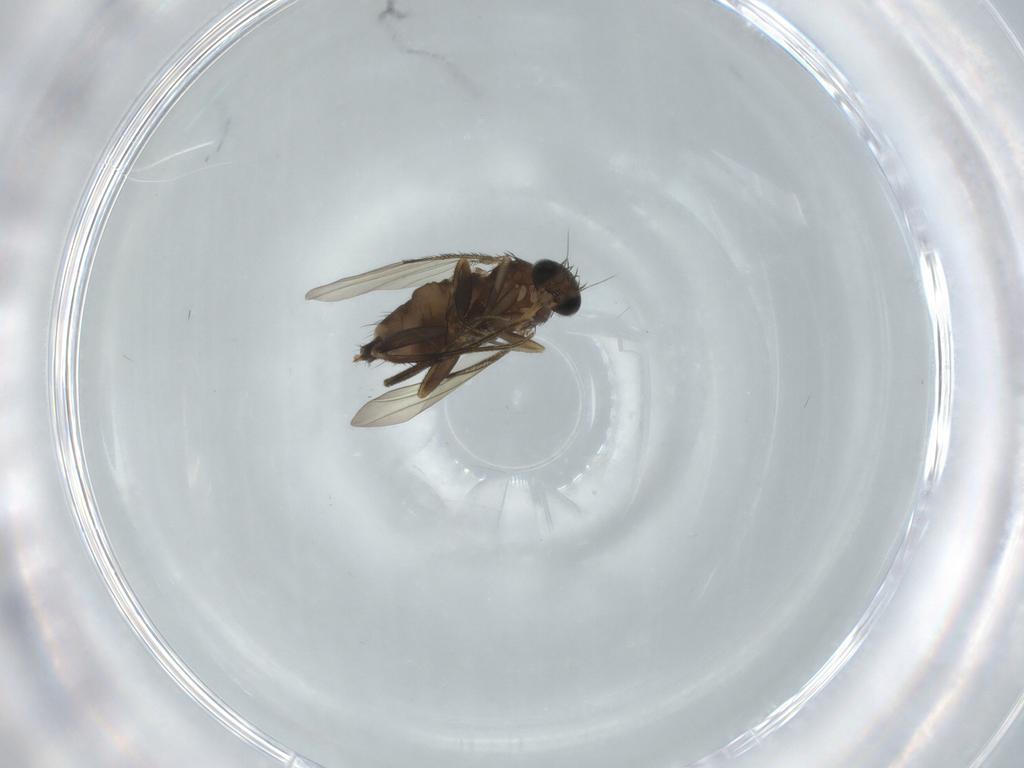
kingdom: Animalia
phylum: Arthropoda
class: Insecta
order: Diptera
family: Phoridae
